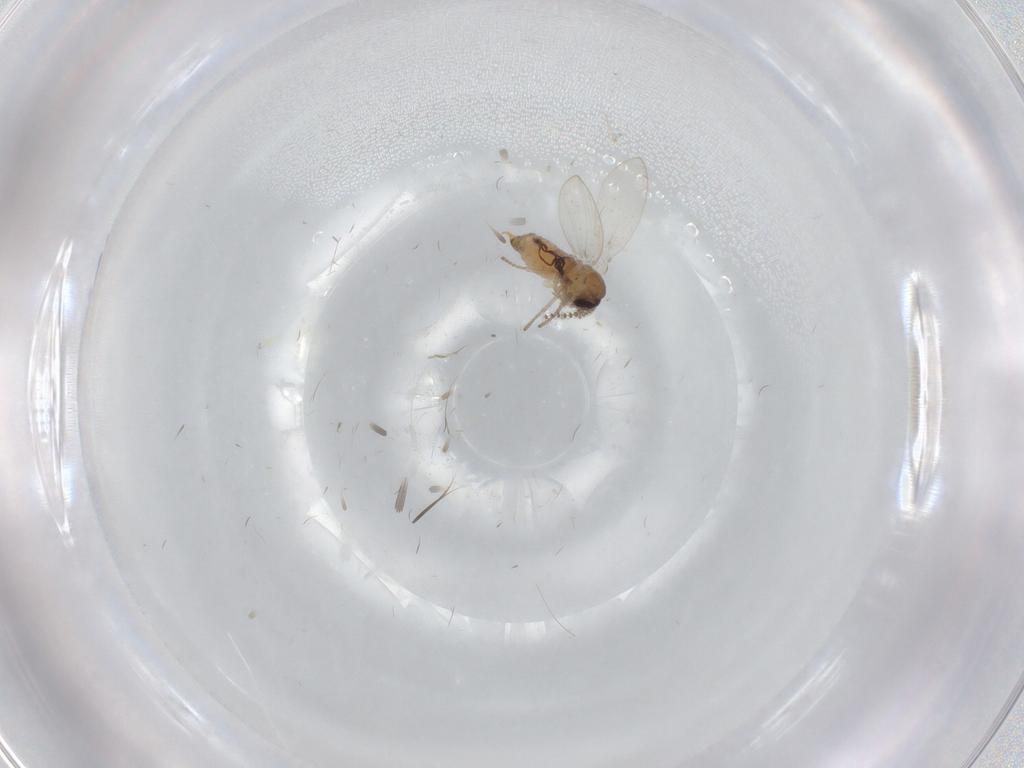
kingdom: Animalia
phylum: Arthropoda
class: Insecta
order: Diptera
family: Psychodidae
